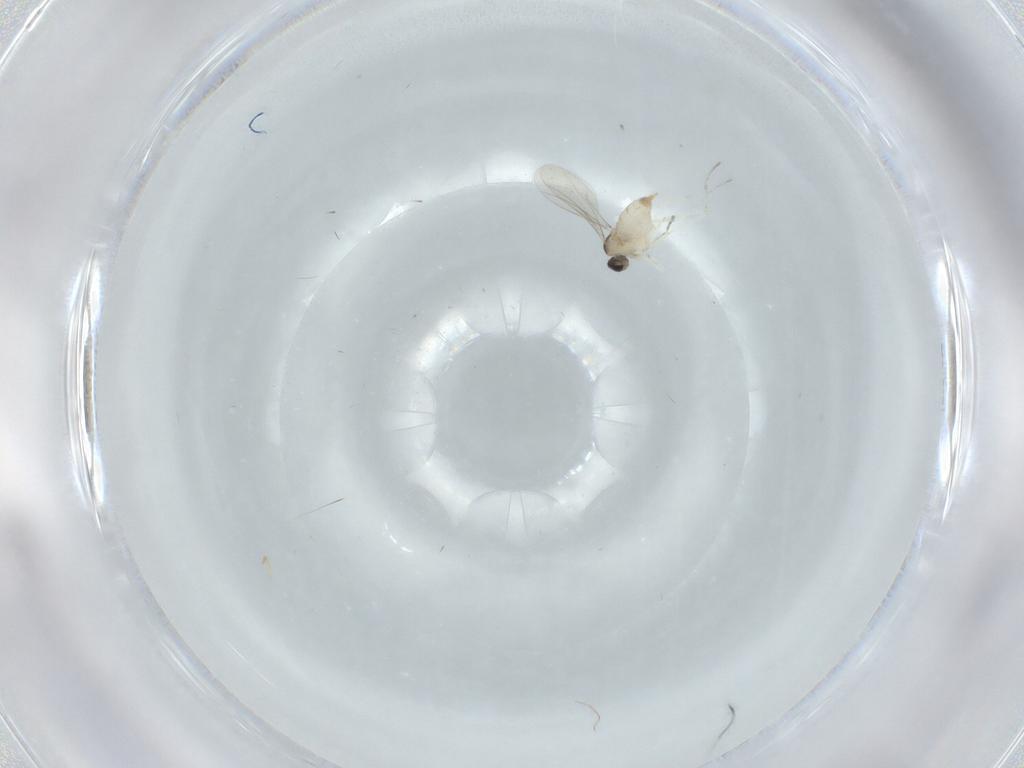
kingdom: Animalia
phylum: Arthropoda
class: Insecta
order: Diptera
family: Cecidomyiidae
